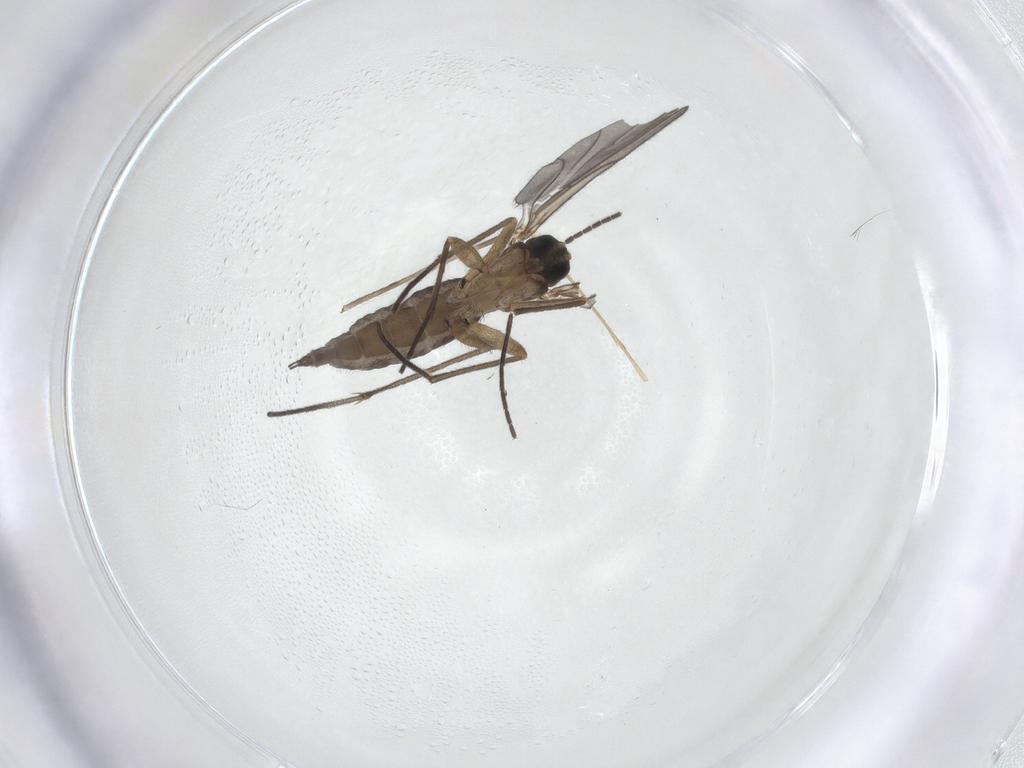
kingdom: Animalia
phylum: Arthropoda
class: Insecta
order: Diptera
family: Sciaridae
